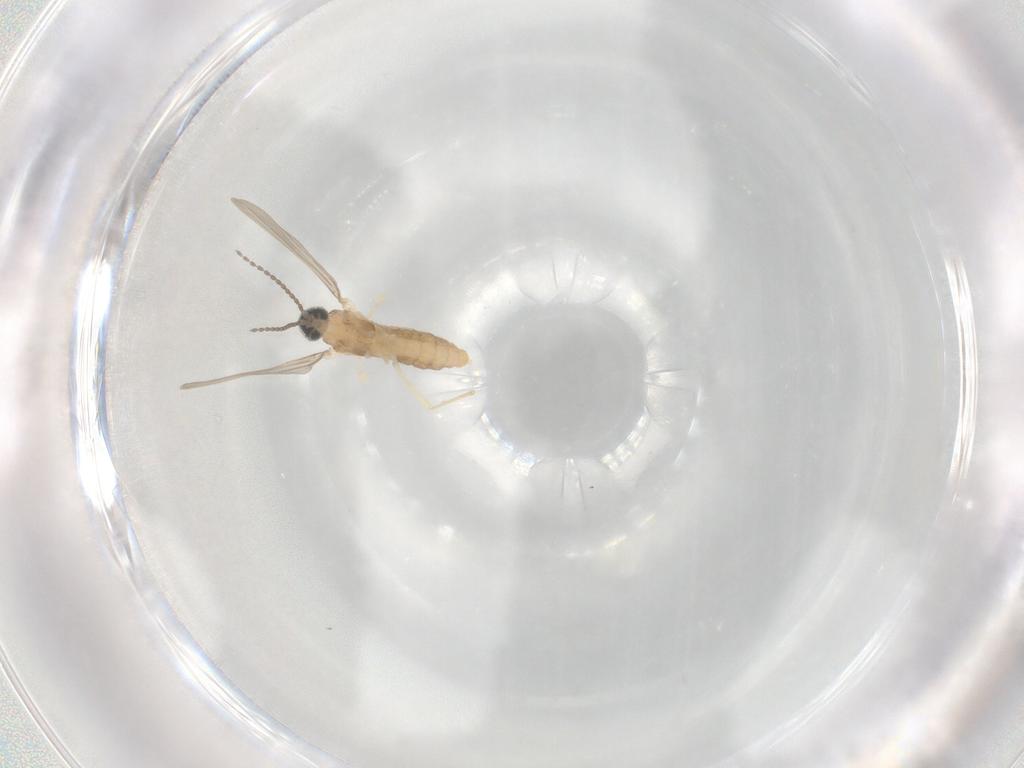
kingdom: Animalia
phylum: Arthropoda
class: Insecta
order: Diptera
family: Cecidomyiidae
